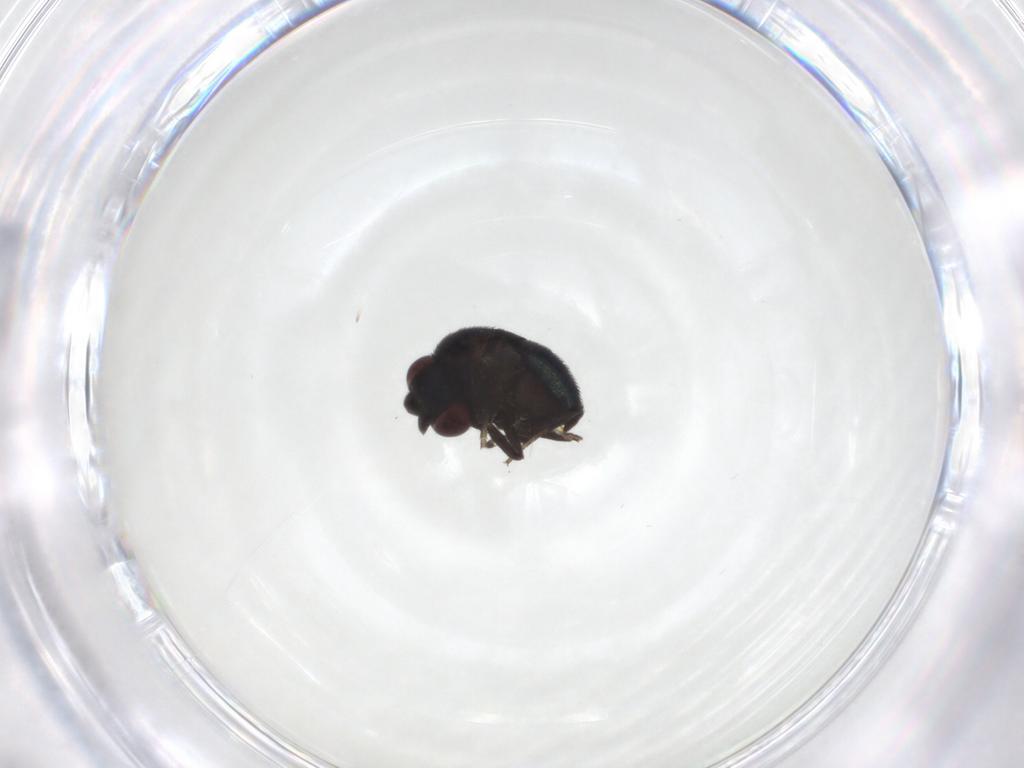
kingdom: Animalia
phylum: Arthropoda
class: Insecta
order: Diptera
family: Cryptochetidae
